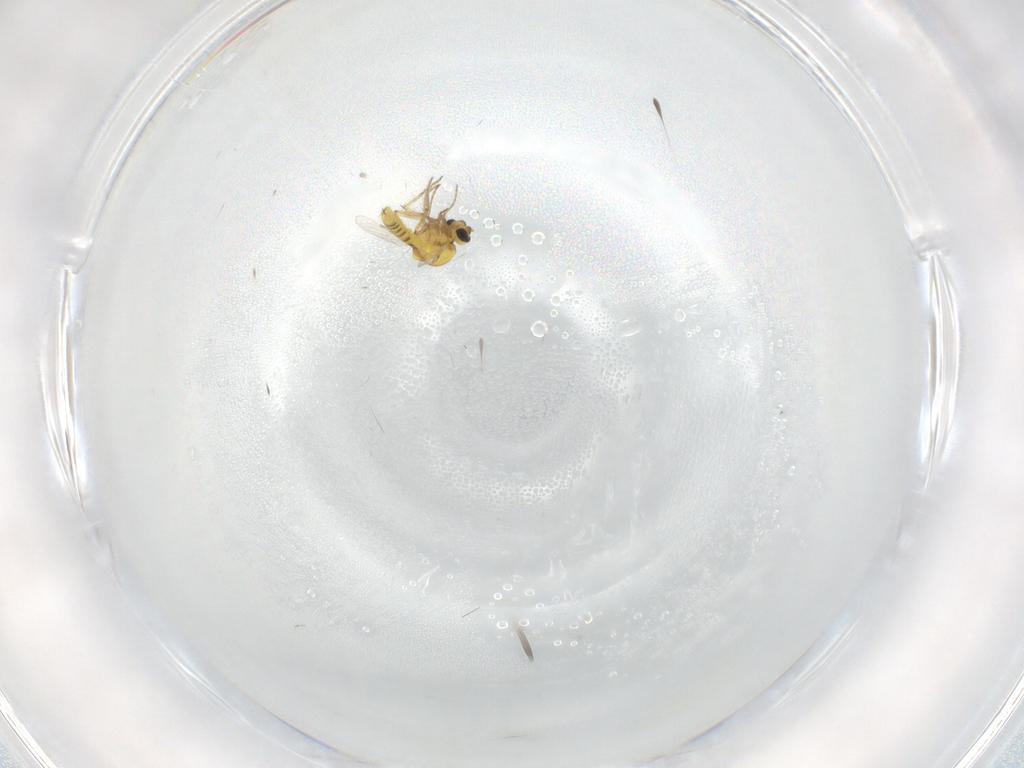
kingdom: Animalia
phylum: Arthropoda
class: Insecta
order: Diptera
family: Ceratopogonidae
